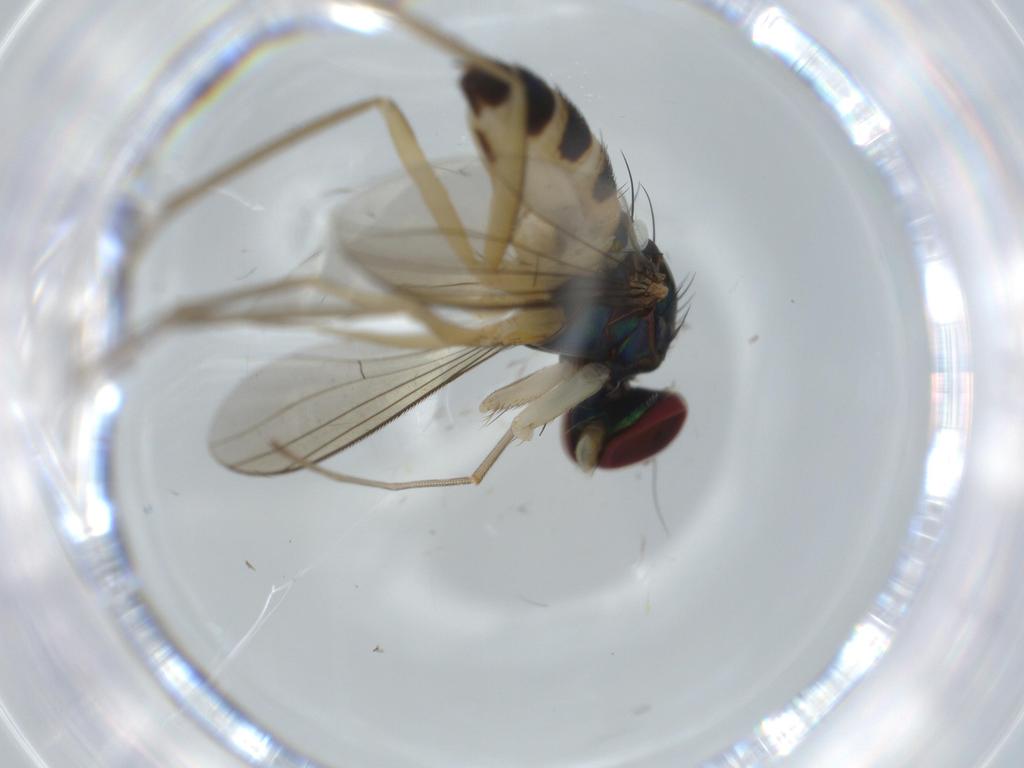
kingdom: Animalia
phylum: Arthropoda
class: Insecta
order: Diptera
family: Dolichopodidae
